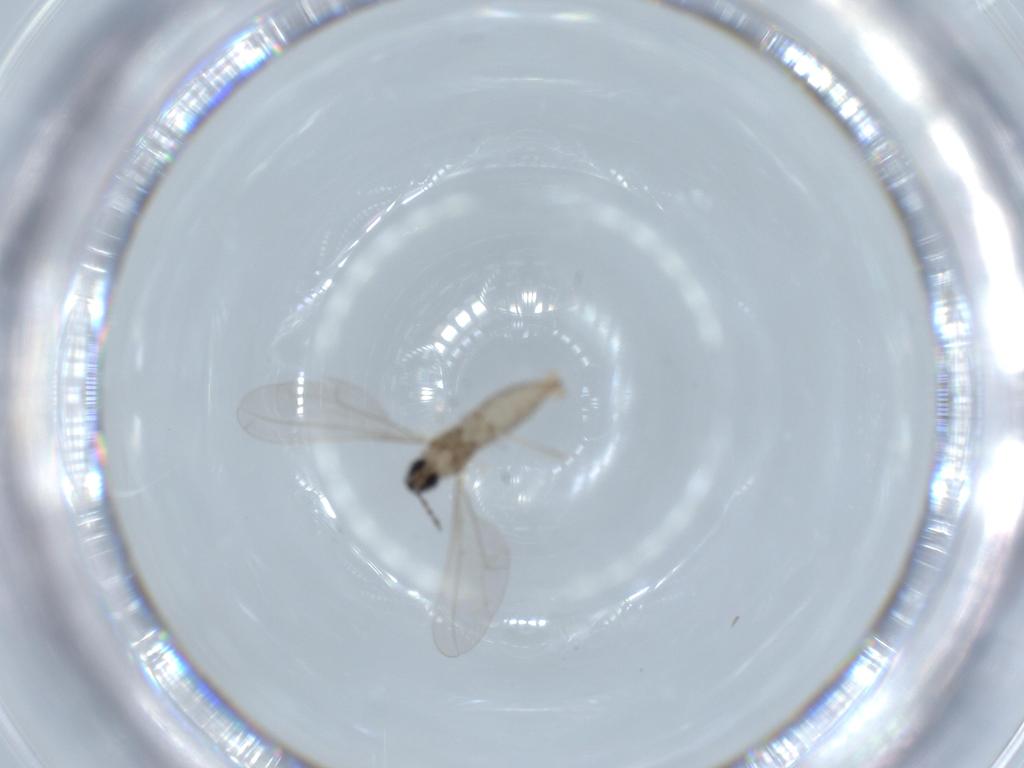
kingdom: Animalia
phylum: Arthropoda
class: Insecta
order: Diptera
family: Cecidomyiidae
